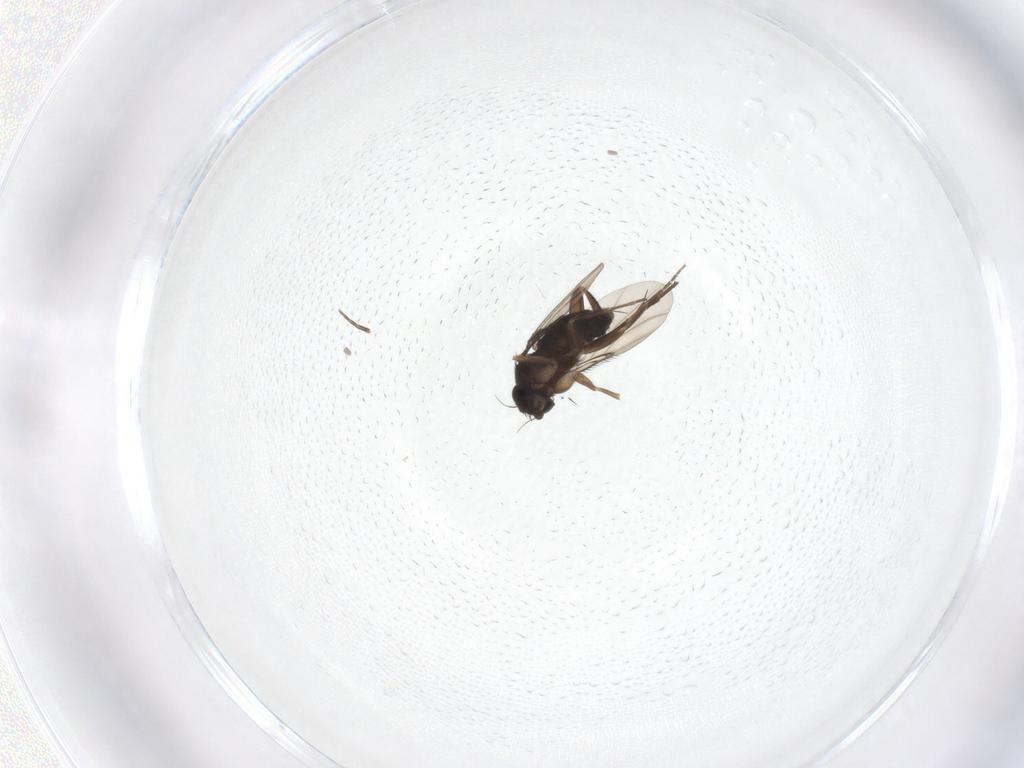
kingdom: Animalia
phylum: Arthropoda
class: Insecta
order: Diptera
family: Phoridae
